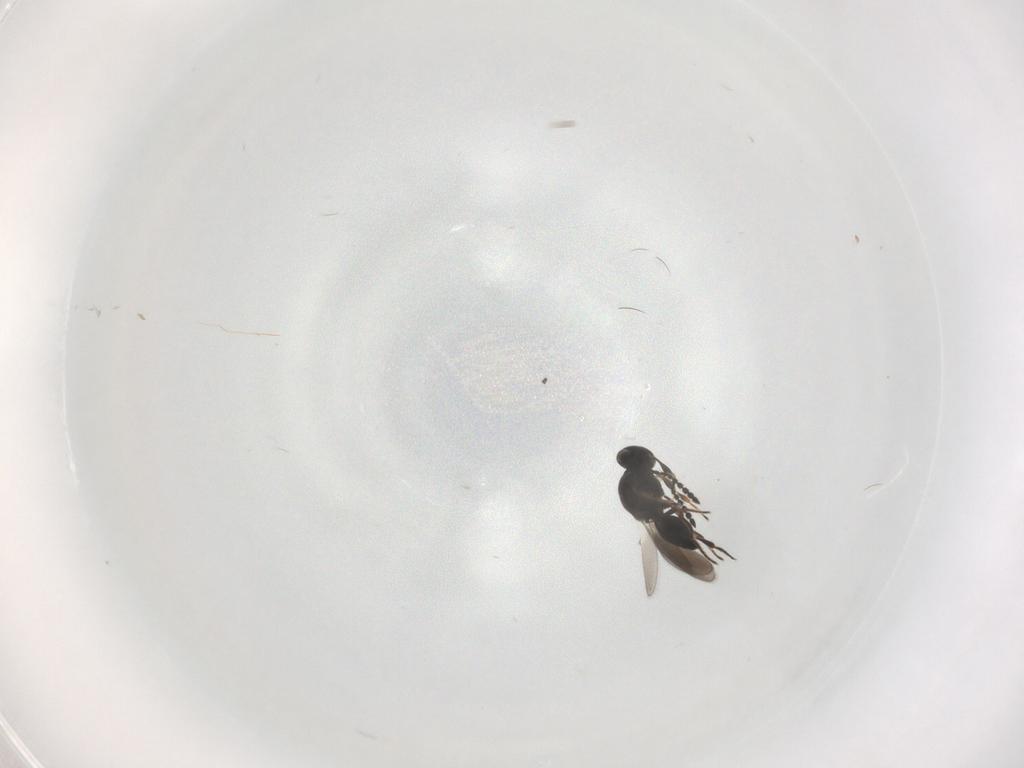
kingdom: Animalia
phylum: Arthropoda
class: Insecta
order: Hymenoptera
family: Platygastridae
